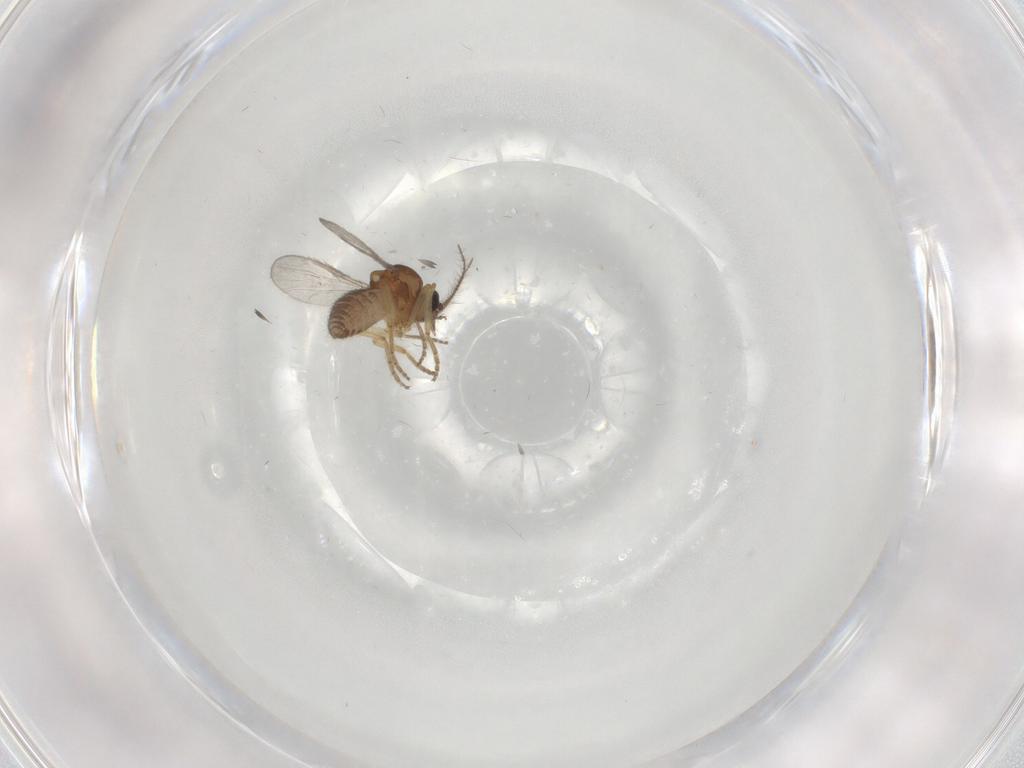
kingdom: Animalia
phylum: Arthropoda
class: Insecta
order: Diptera
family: Ceratopogonidae
